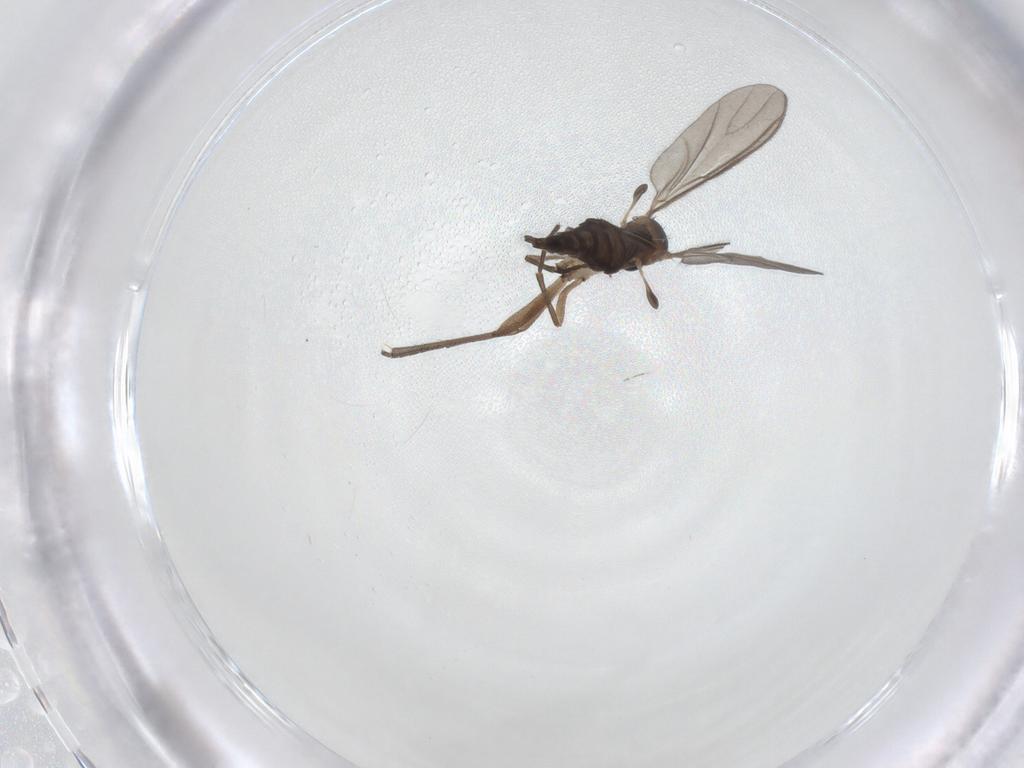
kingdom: Animalia
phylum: Arthropoda
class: Insecta
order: Diptera
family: Sciaridae
